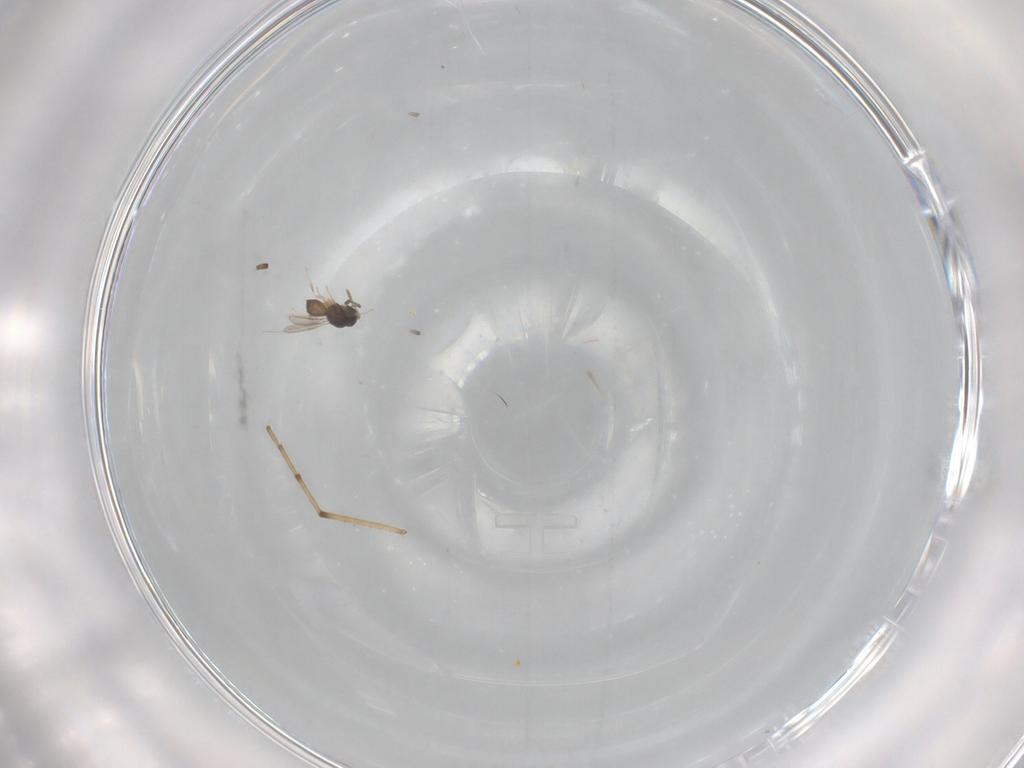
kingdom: Animalia
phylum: Arthropoda
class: Insecta
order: Hymenoptera
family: Scelionidae
